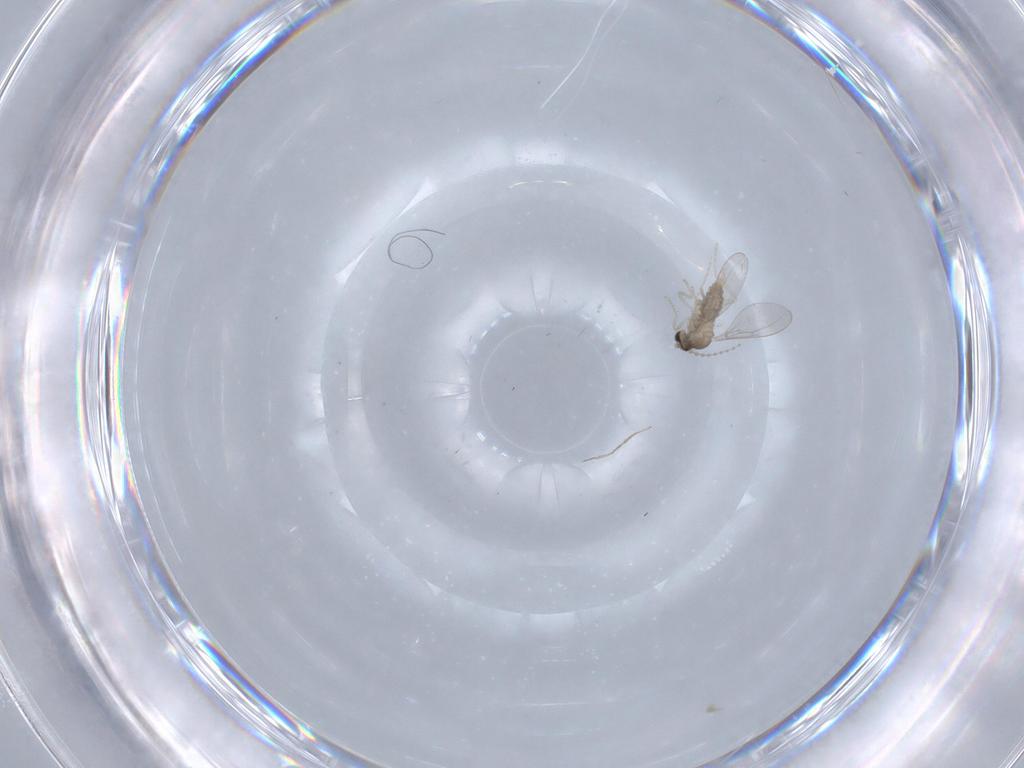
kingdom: Animalia
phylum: Arthropoda
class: Insecta
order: Diptera
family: Cecidomyiidae
